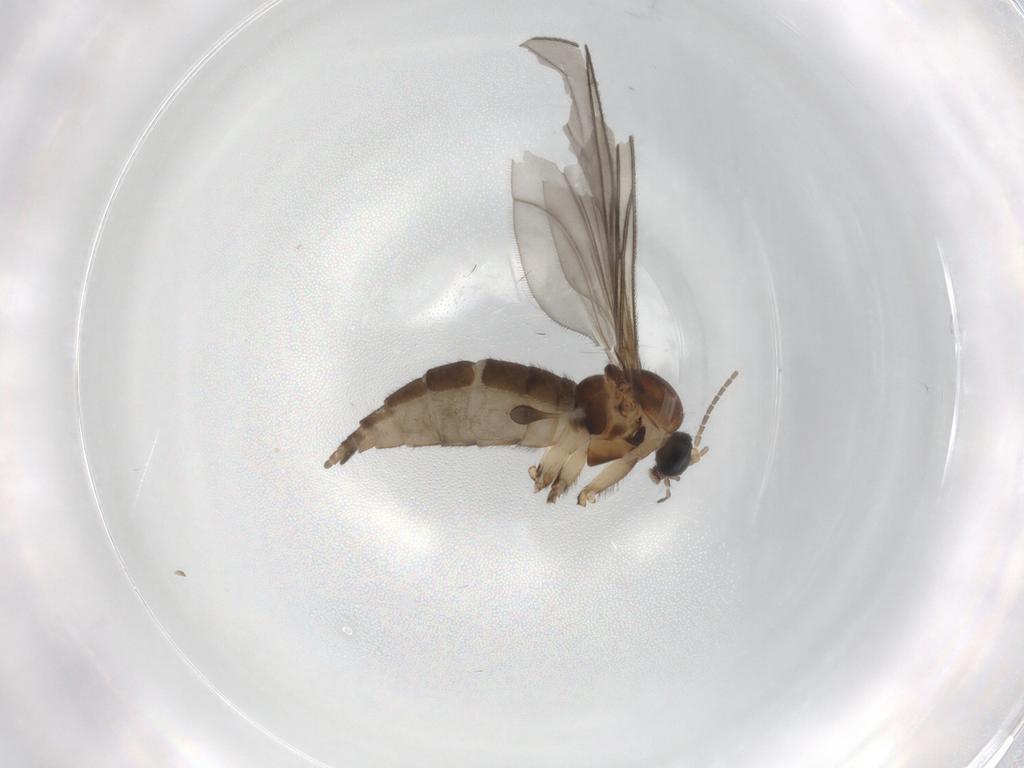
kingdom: Animalia
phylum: Arthropoda
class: Insecta
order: Diptera
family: Sciaridae
